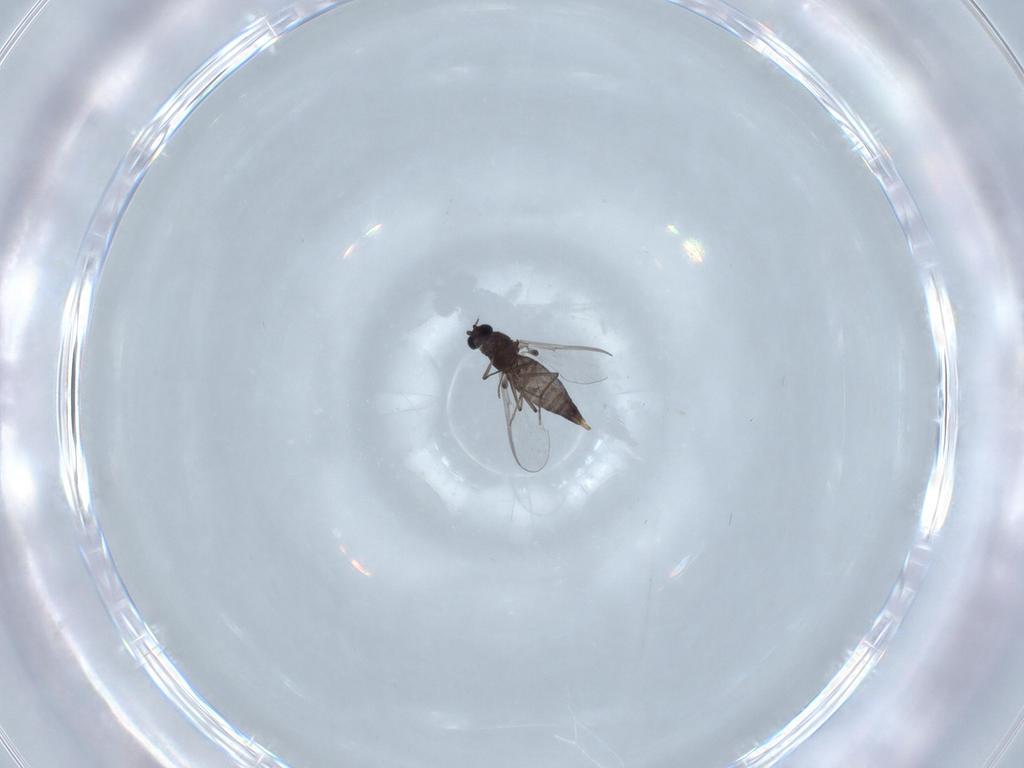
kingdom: Animalia
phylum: Arthropoda
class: Insecta
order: Diptera
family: Chironomidae
